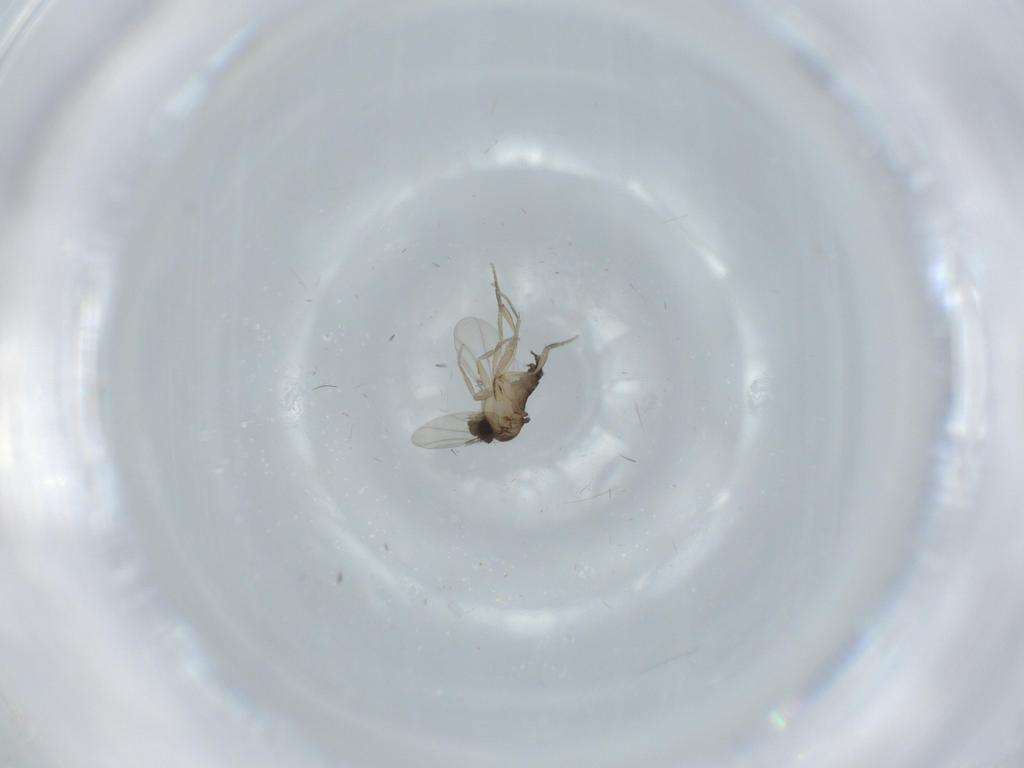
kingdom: Animalia
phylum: Arthropoda
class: Insecta
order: Diptera
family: Phoridae
